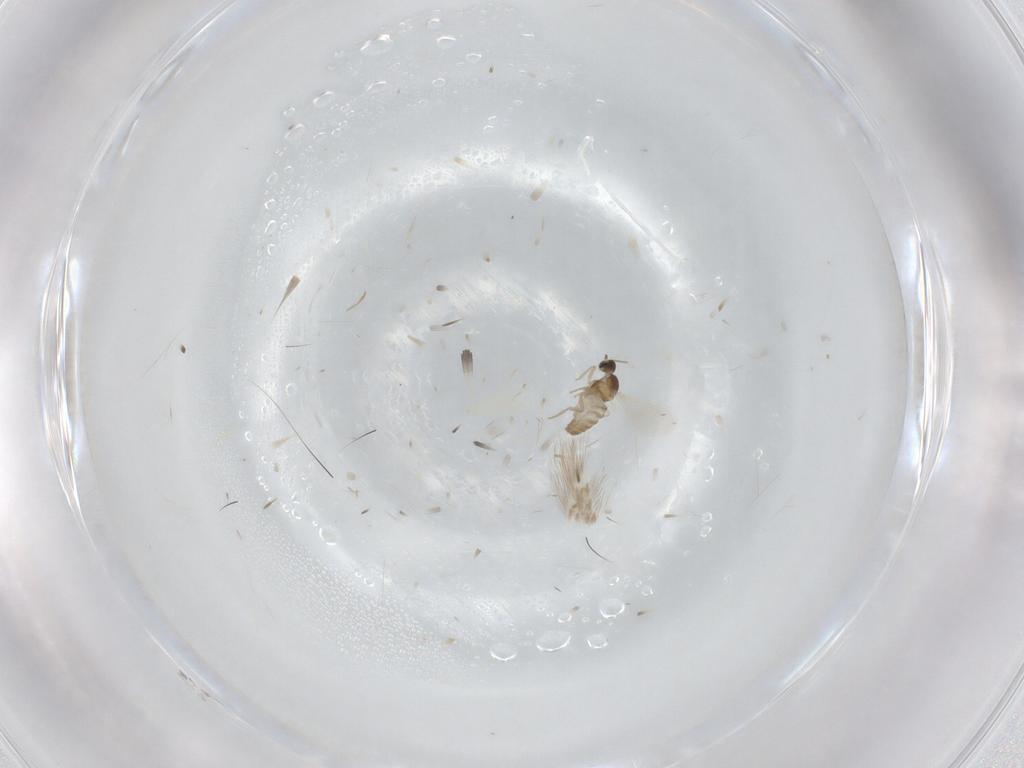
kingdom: Animalia
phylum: Arthropoda
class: Insecta
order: Diptera
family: Cecidomyiidae
